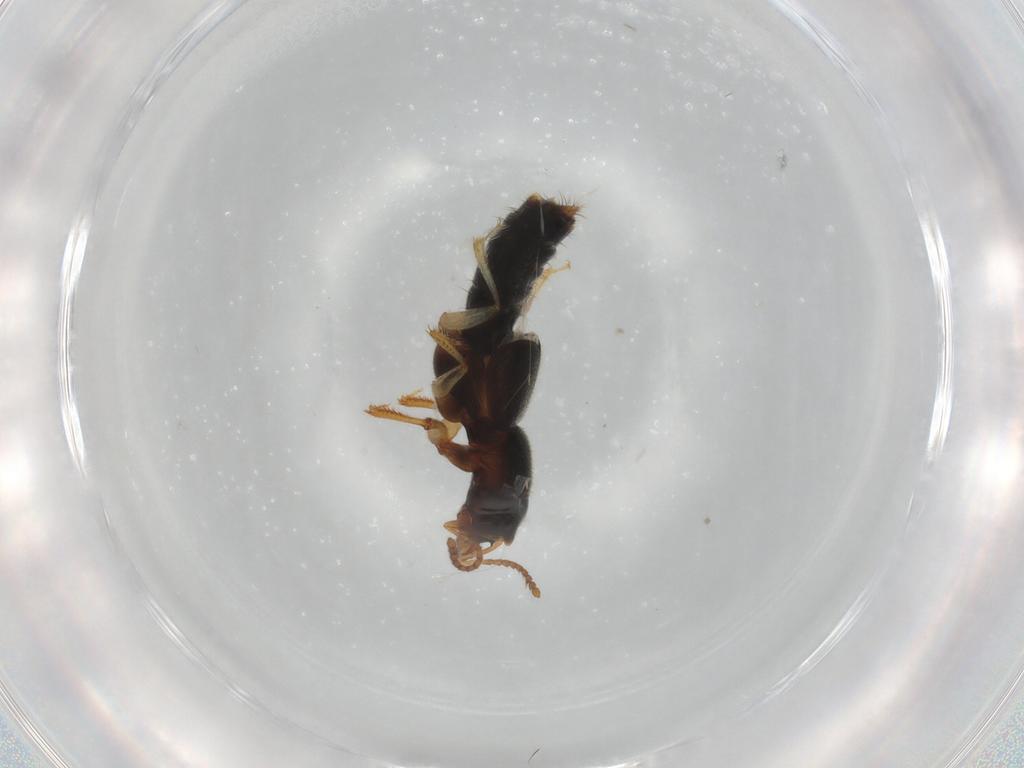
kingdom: Animalia
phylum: Arthropoda
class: Insecta
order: Coleoptera
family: Staphylinidae
